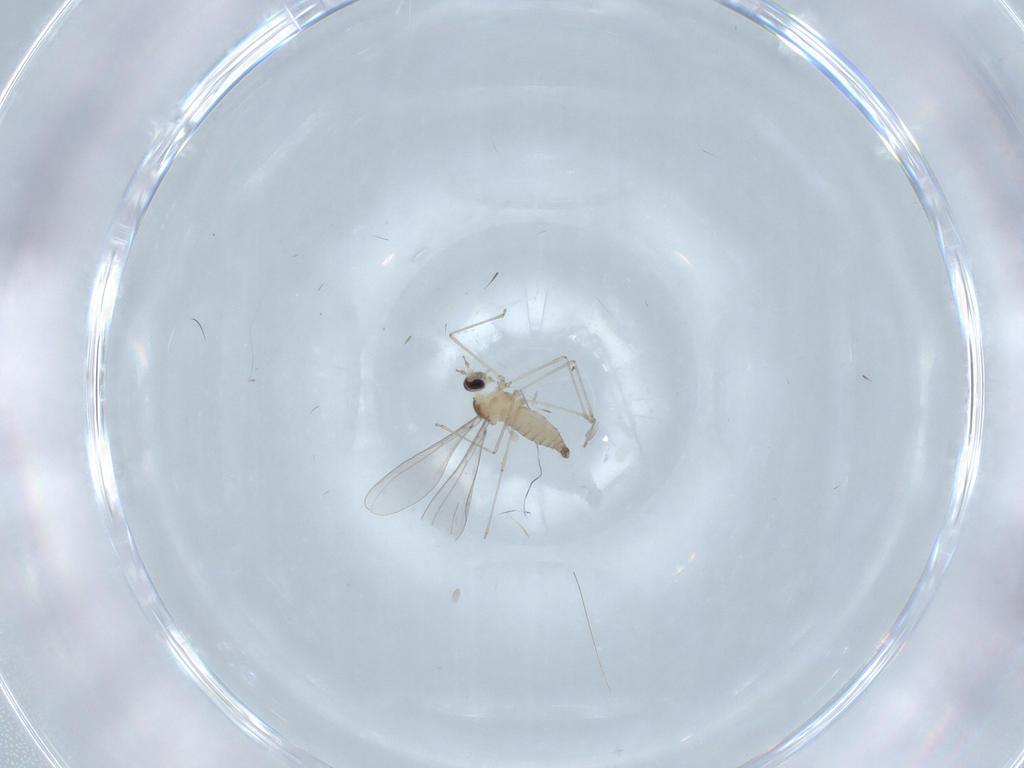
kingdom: Animalia
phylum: Arthropoda
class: Insecta
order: Diptera
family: Cecidomyiidae
